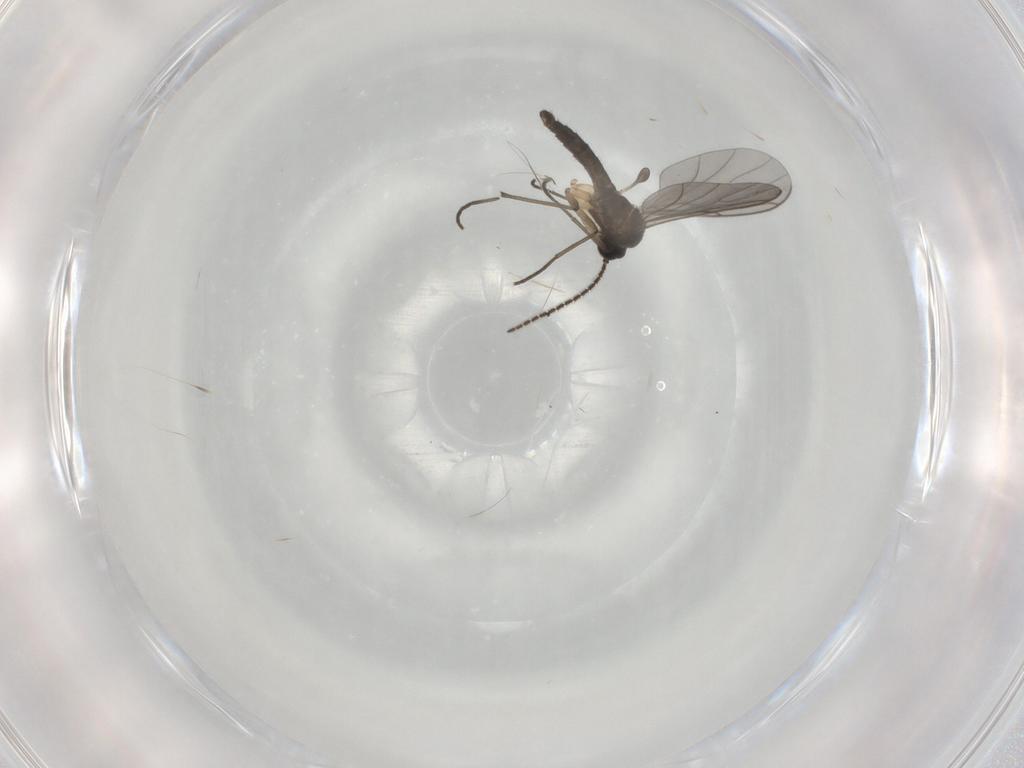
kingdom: Animalia
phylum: Arthropoda
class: Insecta
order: Diptera
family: Sciaridae
